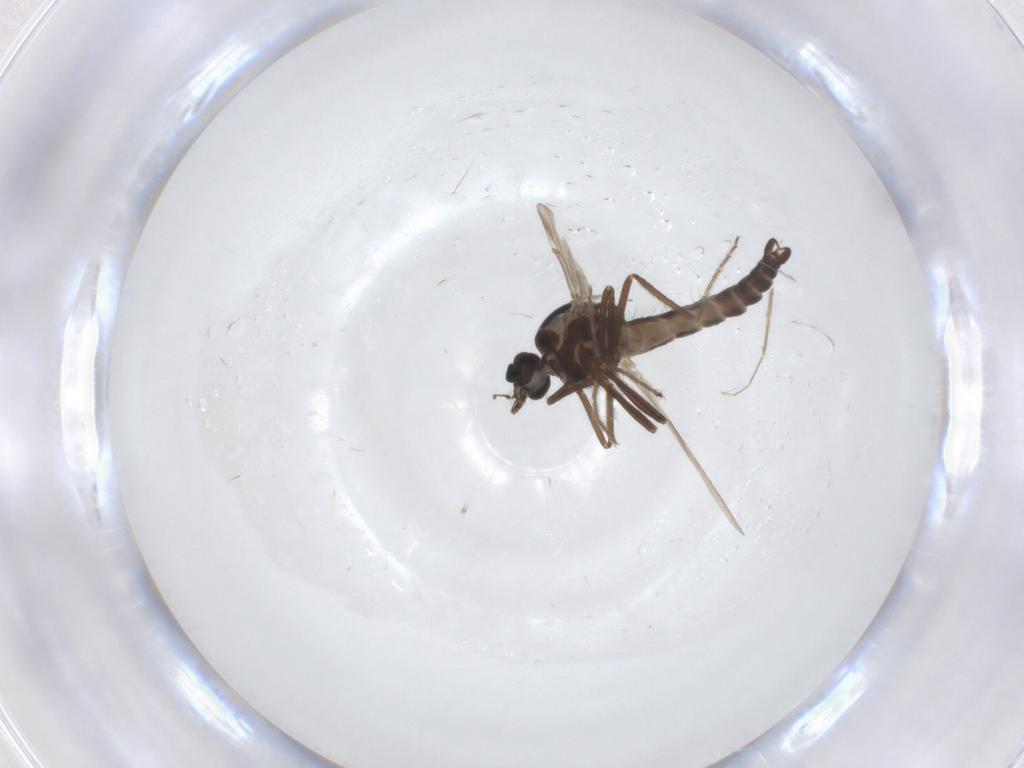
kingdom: Animalia
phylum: Arthropoda
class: Insecta
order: Diptera
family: Ceratopogonidae
